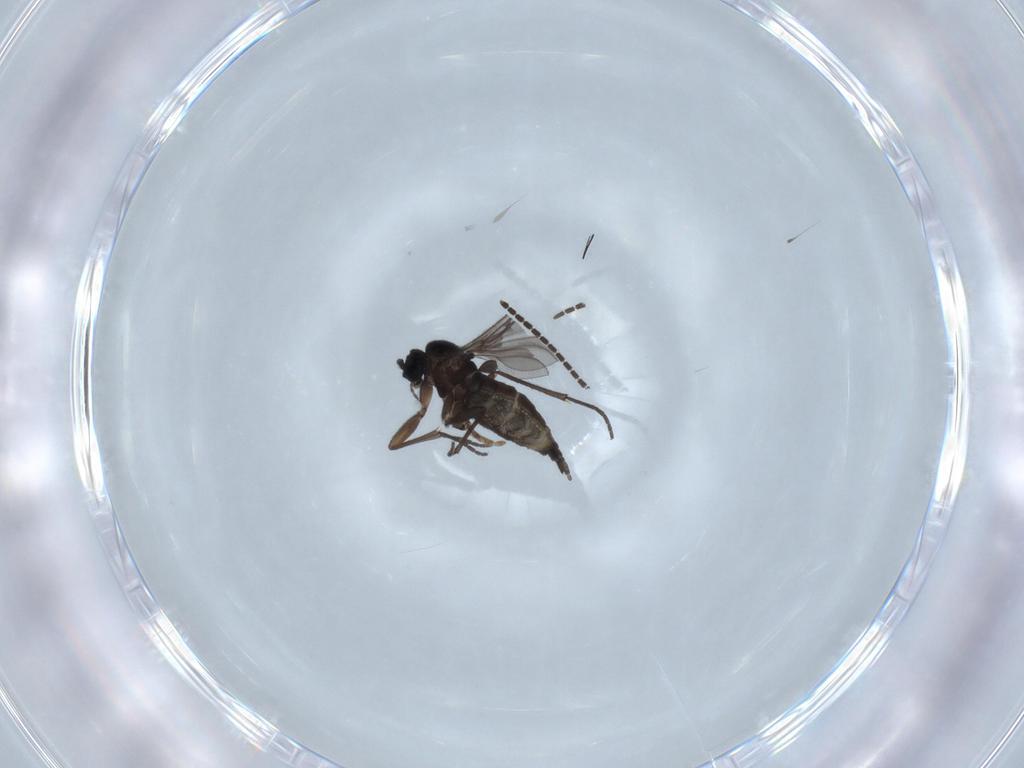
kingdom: Animalia
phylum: Arthropoda
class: Insecta
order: Diptera
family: Sciaridae
